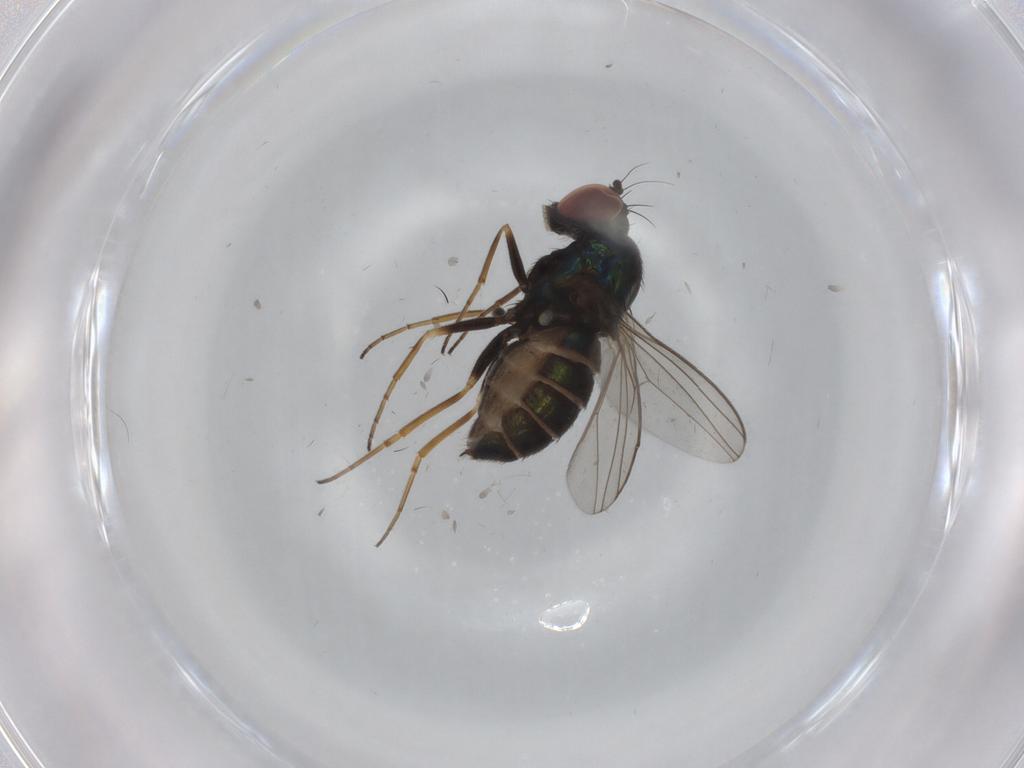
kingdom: Animalia
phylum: Arthropoda
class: Insecta
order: Diptera
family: Dolichopodidae
